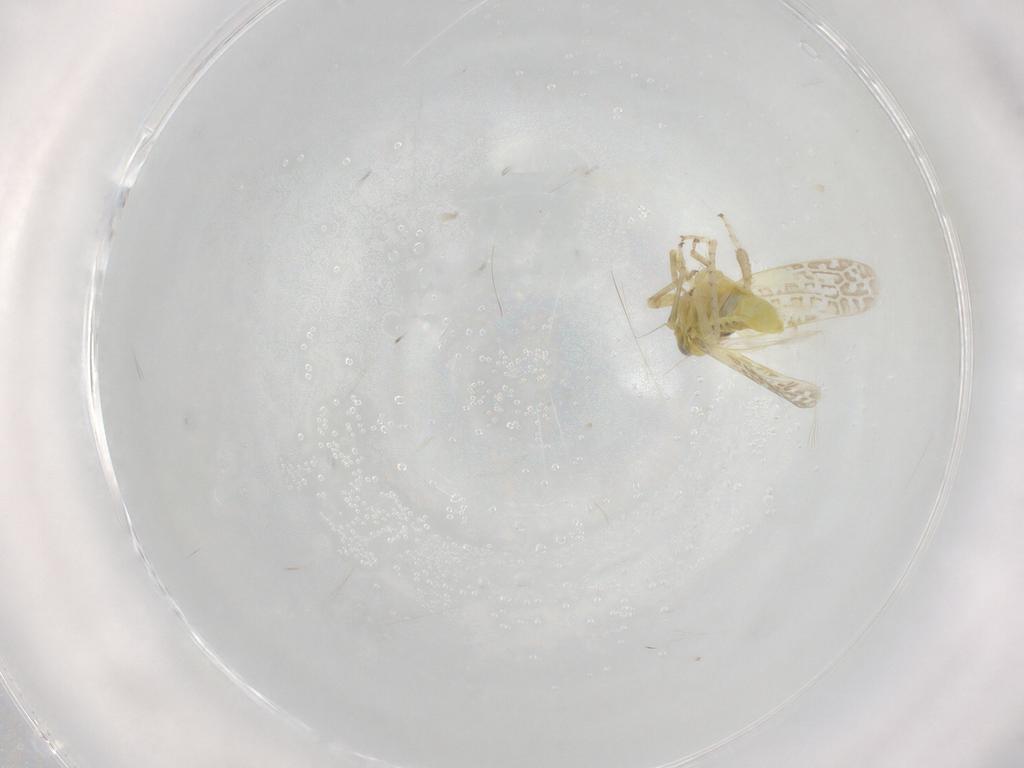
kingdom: Animalia
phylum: Arthropoda
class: Insecta
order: Hemiptera
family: Cicadellidae
